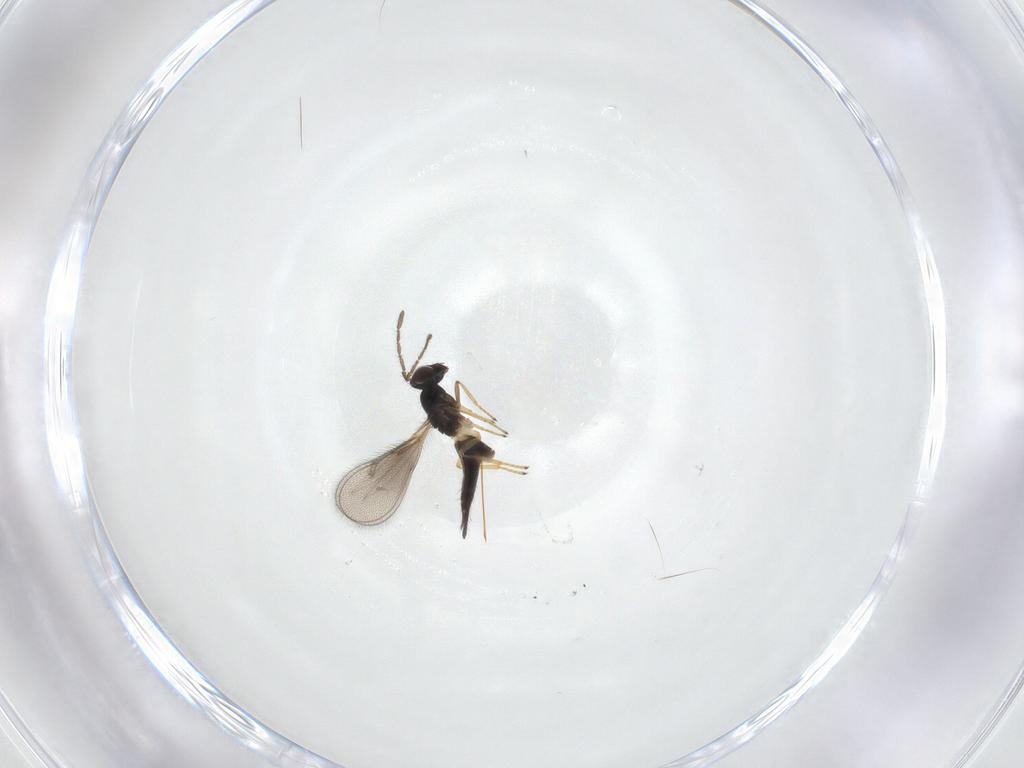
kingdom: Animalia
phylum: Arthropoda
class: Insecta
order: Hymenoptera
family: Eulophidae
